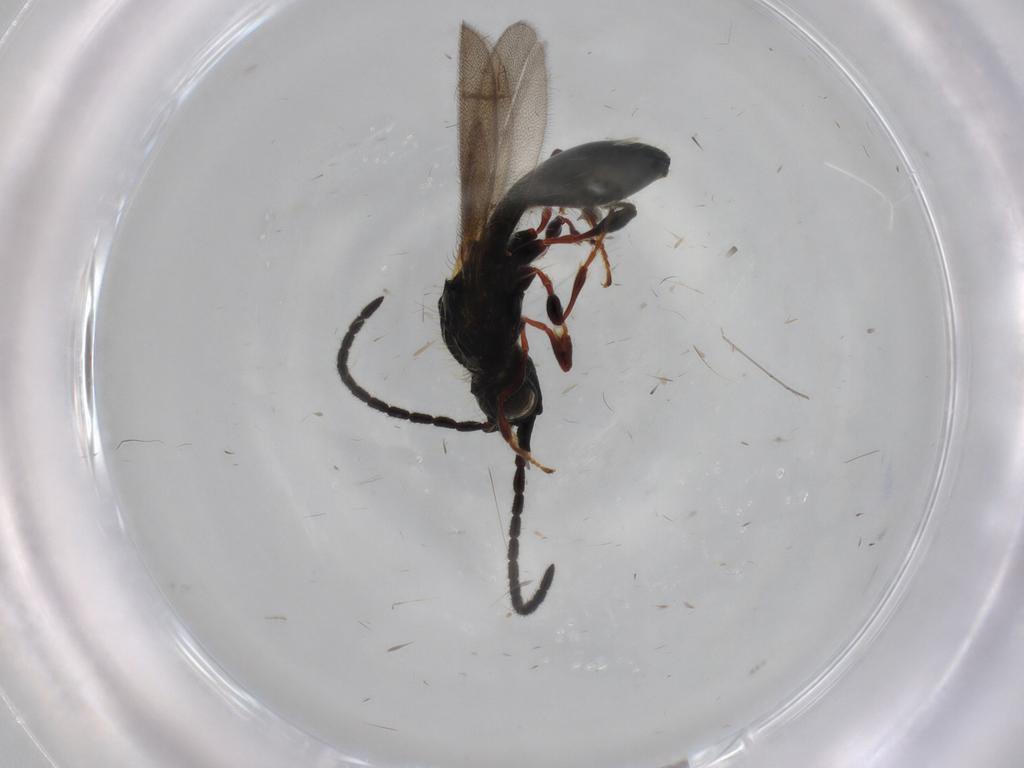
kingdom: Animalia
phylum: Arthropoda
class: Insecta
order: Hymenoptera
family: Diapriidae
